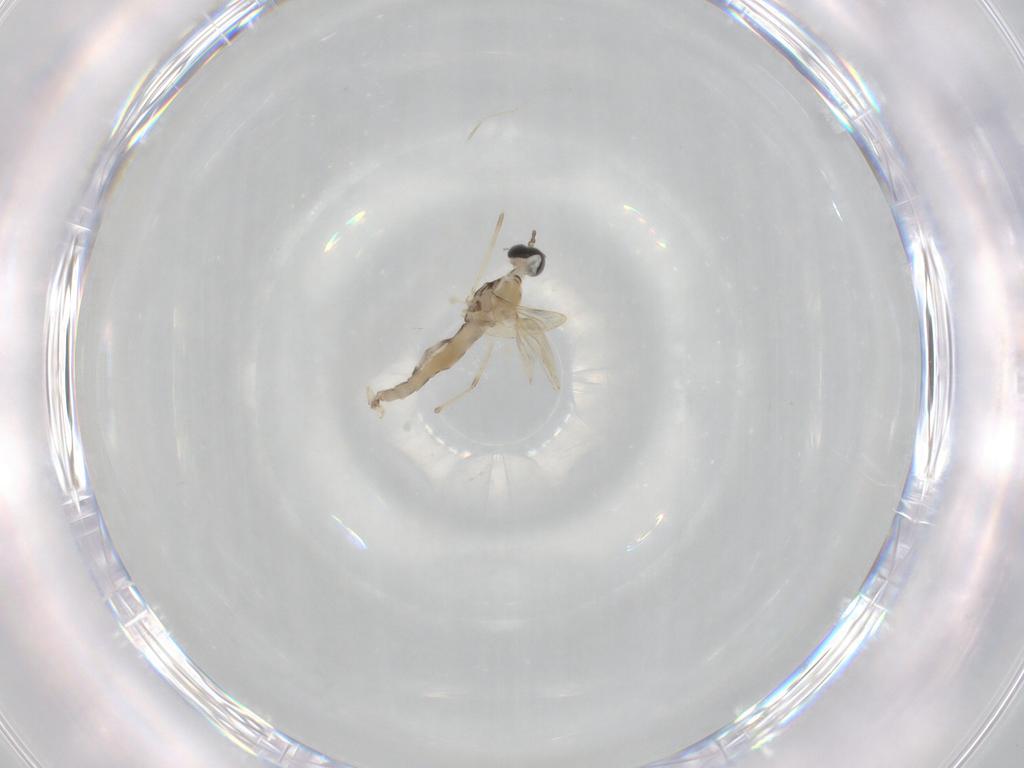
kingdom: Animalia
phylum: Arthropoda
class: Insecta
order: Diptera
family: Cecidomyiidae
